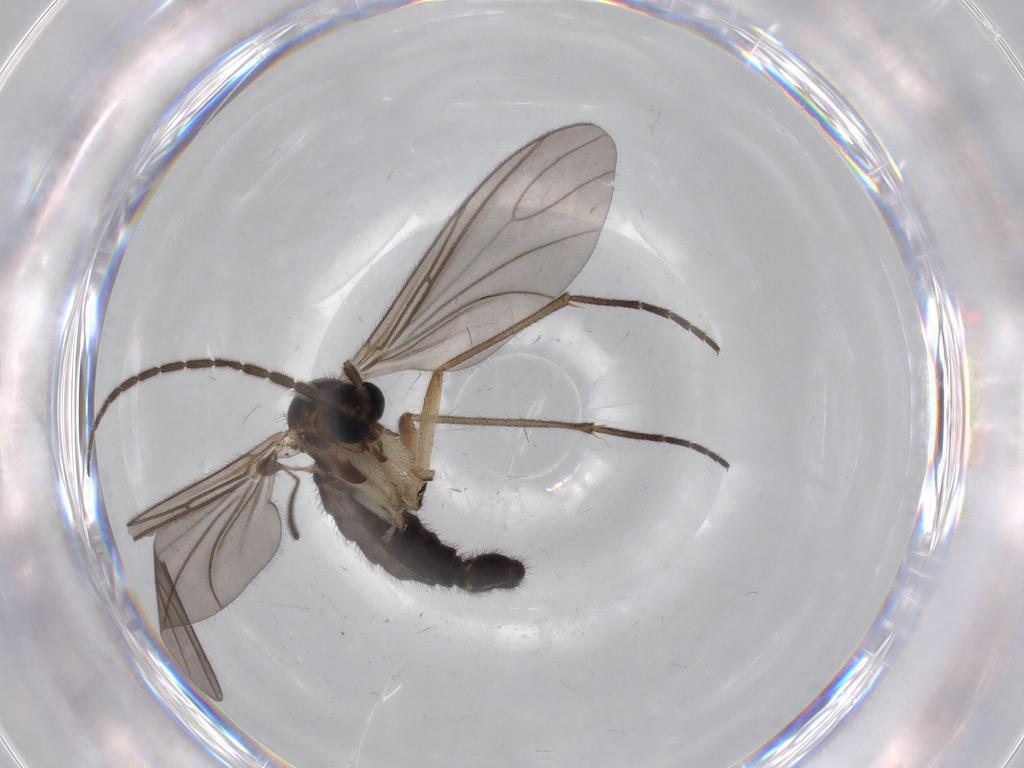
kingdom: Animalia
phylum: Arthropoda
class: Insecta
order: Diptera
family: Sciaridae
